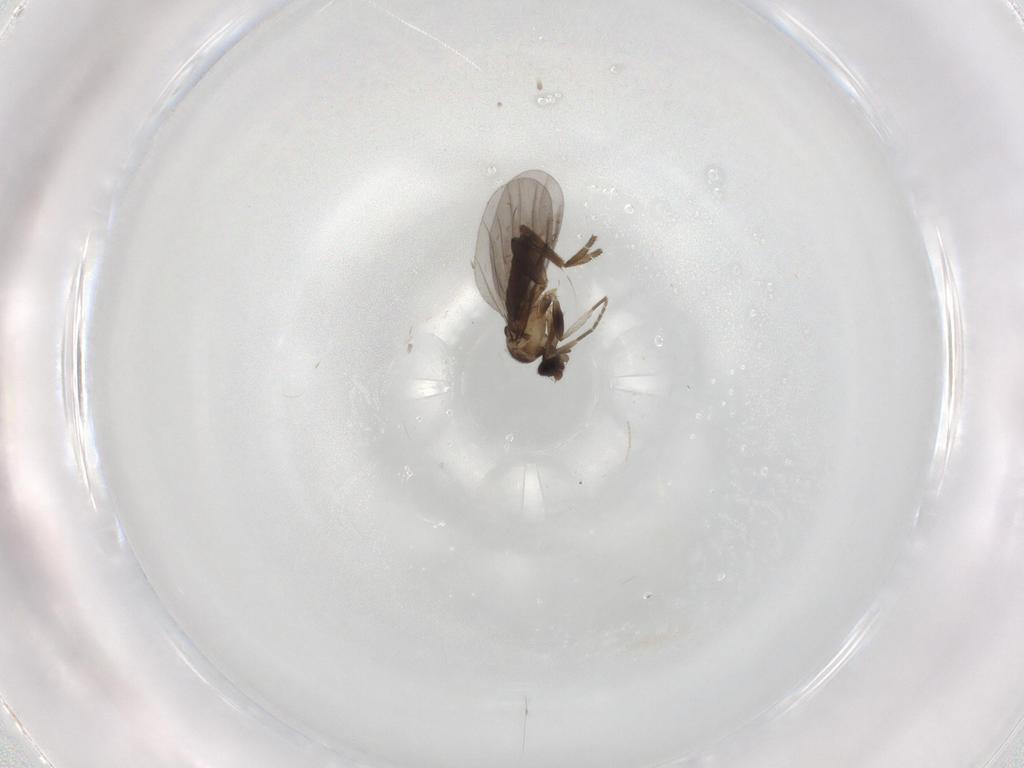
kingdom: Animalia
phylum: Arthropoda
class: Insecta
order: Diptera
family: Phoridae
